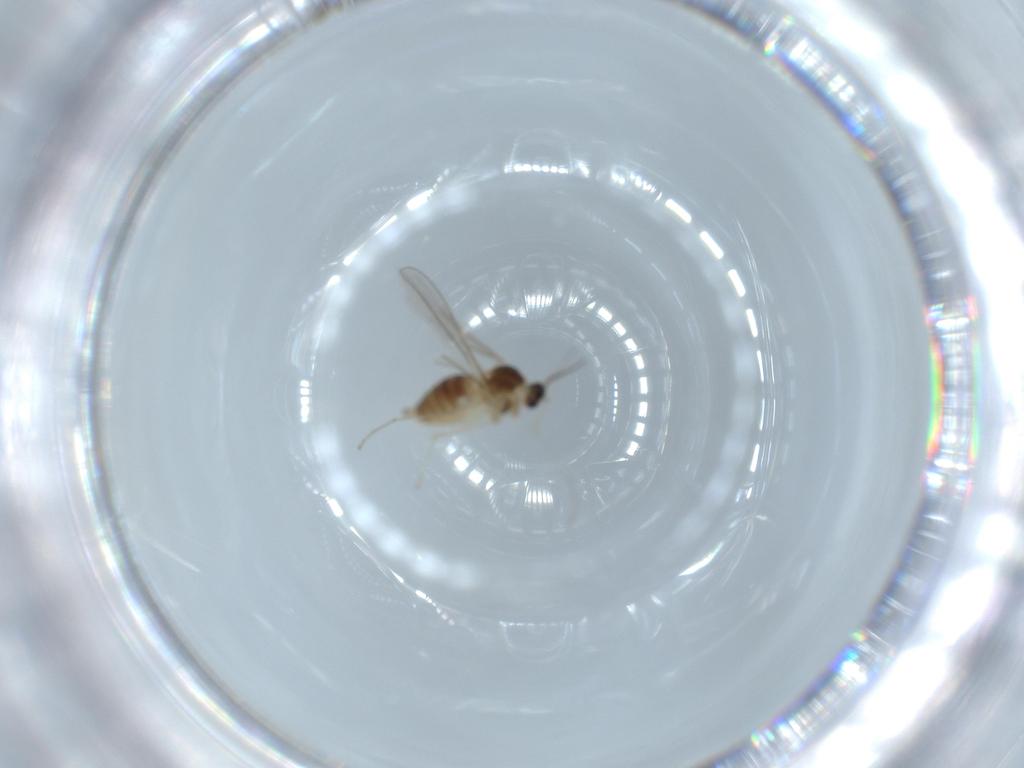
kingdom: Animalia
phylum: Arthropoda
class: Insecta
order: Diptera
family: Cecidomyiidae
